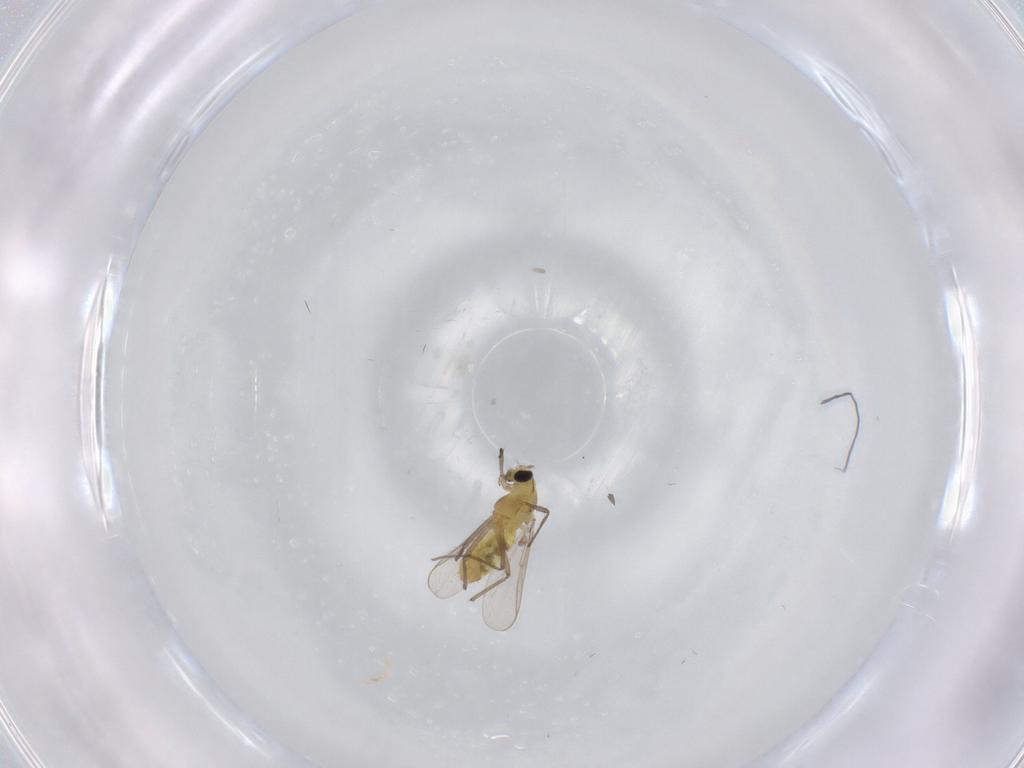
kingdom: Animalia
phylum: Arthropoda
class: Insecta
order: Diptera
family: Chironomidae
